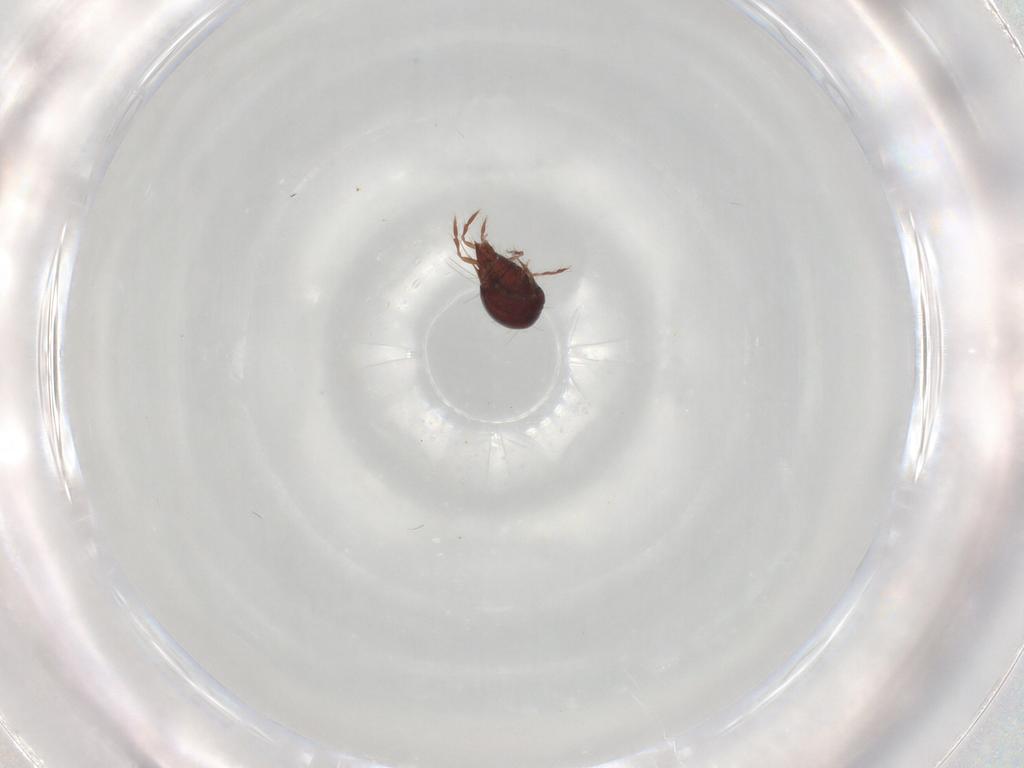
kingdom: Animalia
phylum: Arthropoda
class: Arachnida
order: Sarcoptiformes
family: Ceratoppiidae
